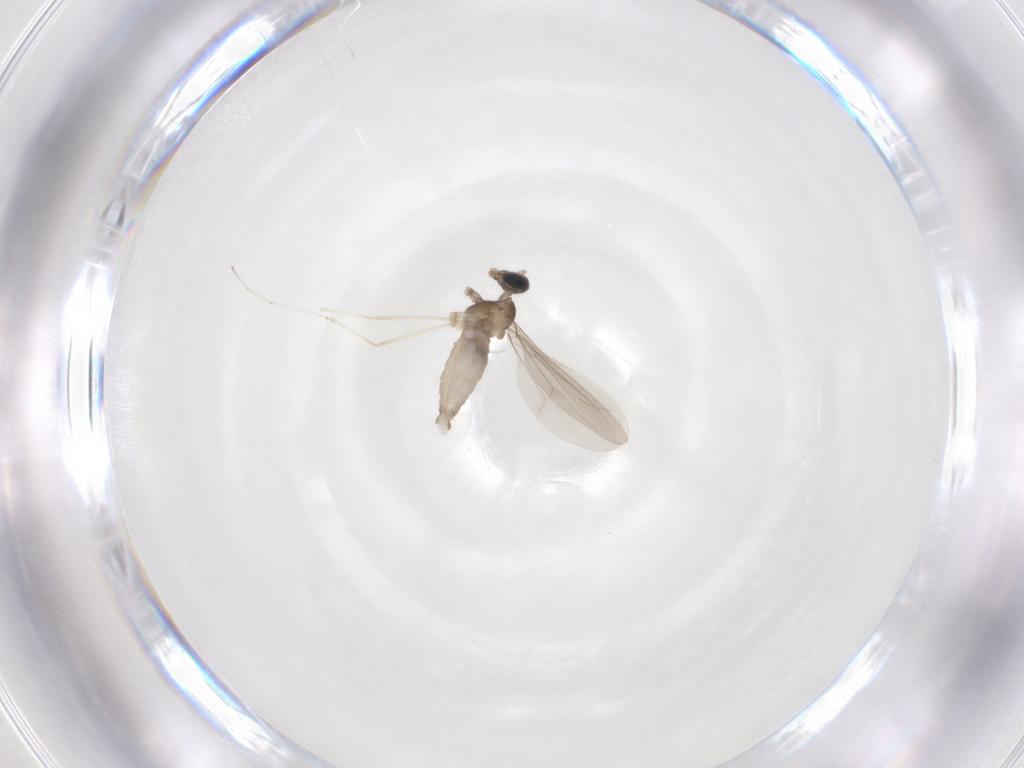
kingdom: Animalia
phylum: Arthropoda
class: Insecta
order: Diptera
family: Cecidomyiidae
